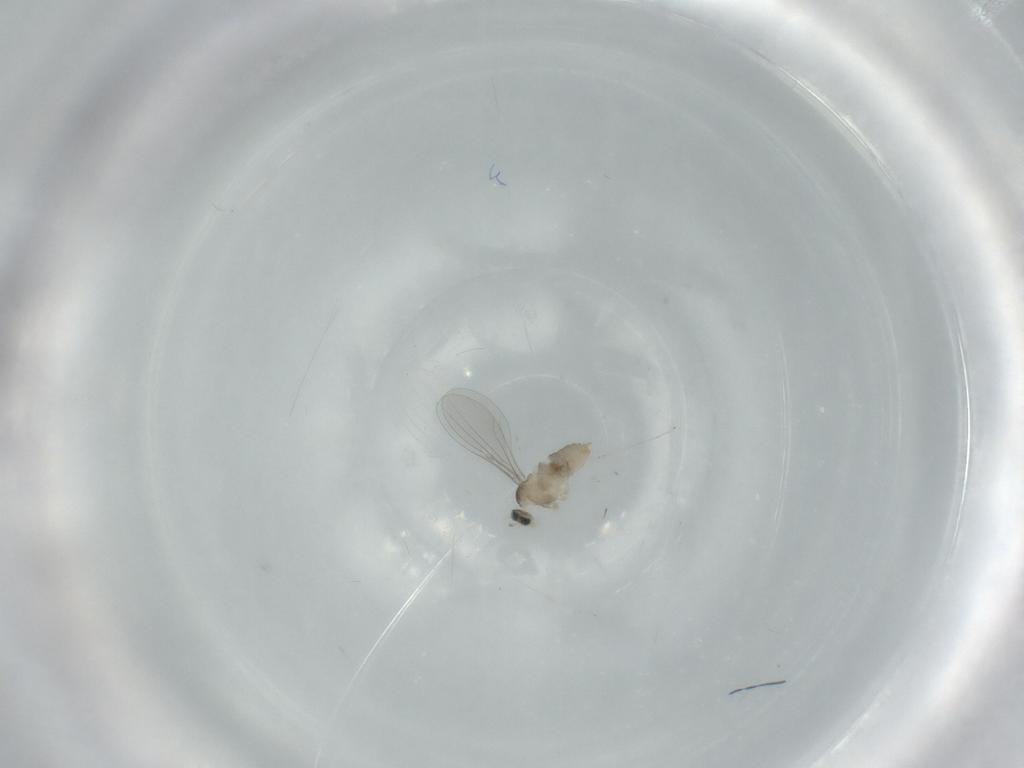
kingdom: Animalia
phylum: Arthropoda
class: Insecta
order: Diptera
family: Cecidomyiidae
